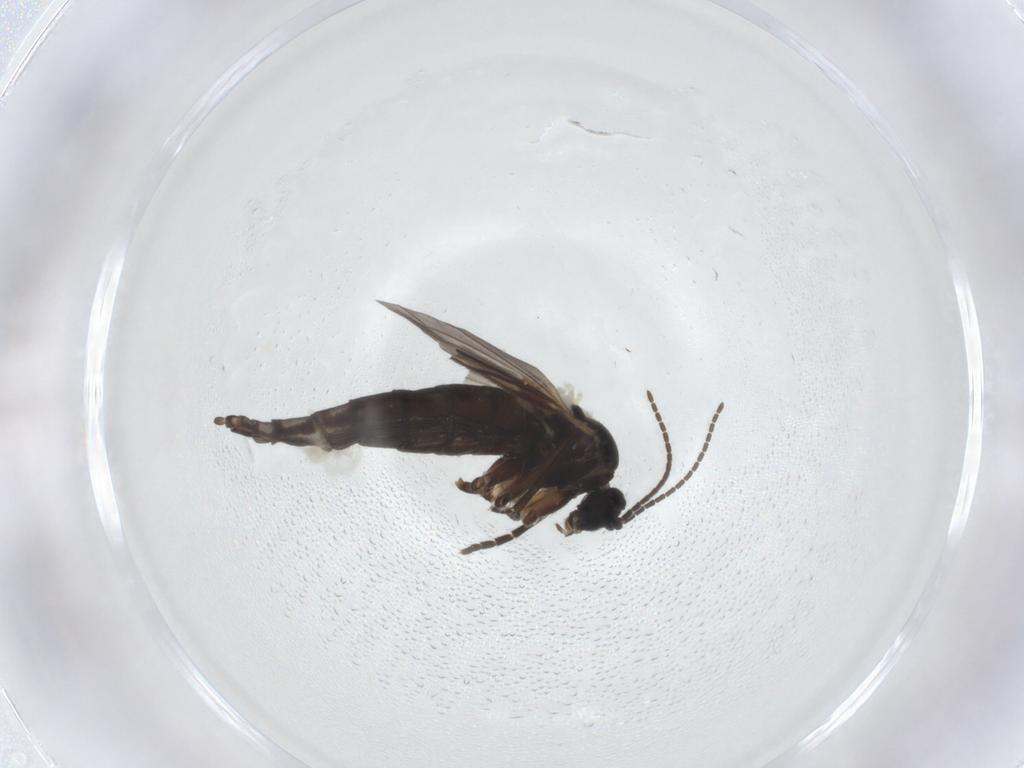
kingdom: Animalia
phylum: Arthropoda
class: Insecta
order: Diptera
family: Sciaridae
